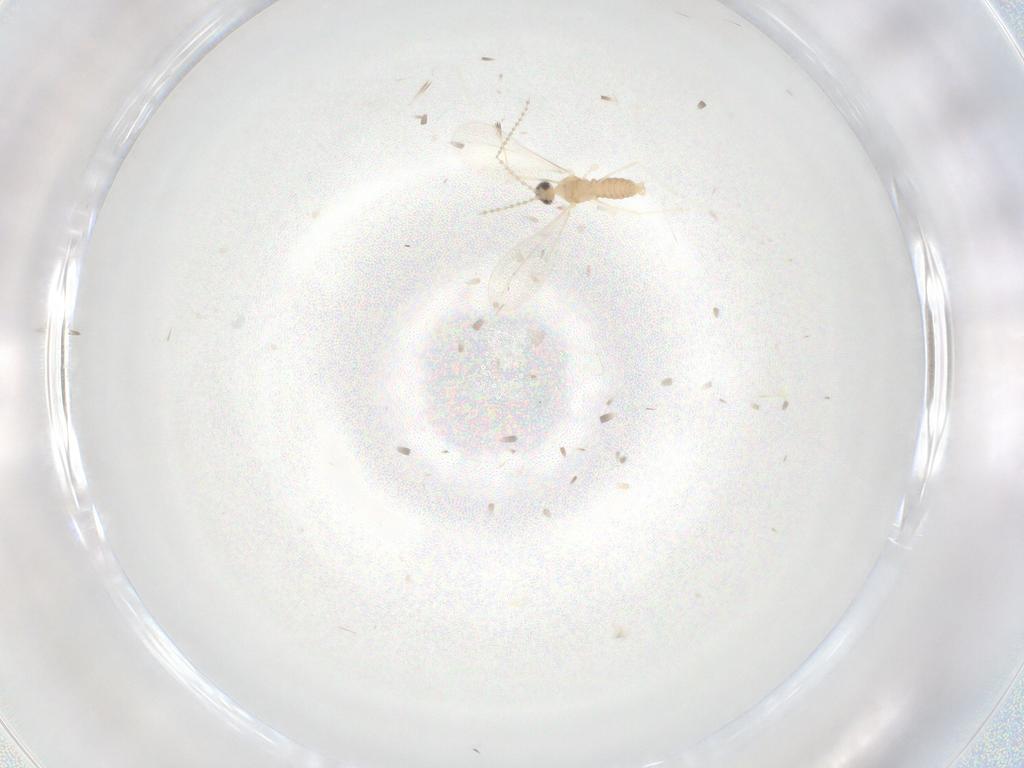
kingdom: Animalia
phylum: Arthropoda
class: Insecta
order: Diptera
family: Cecidomyiidae
